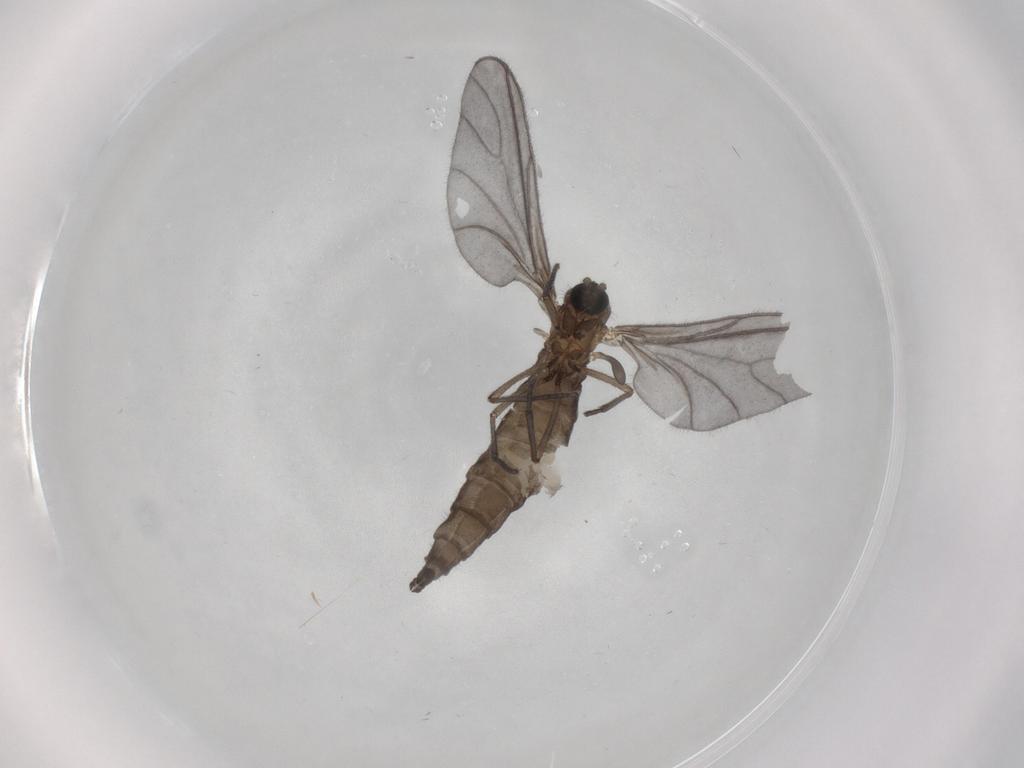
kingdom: Animalia
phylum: Arthropoda
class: Insecta
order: Diptera
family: Sciaridae
